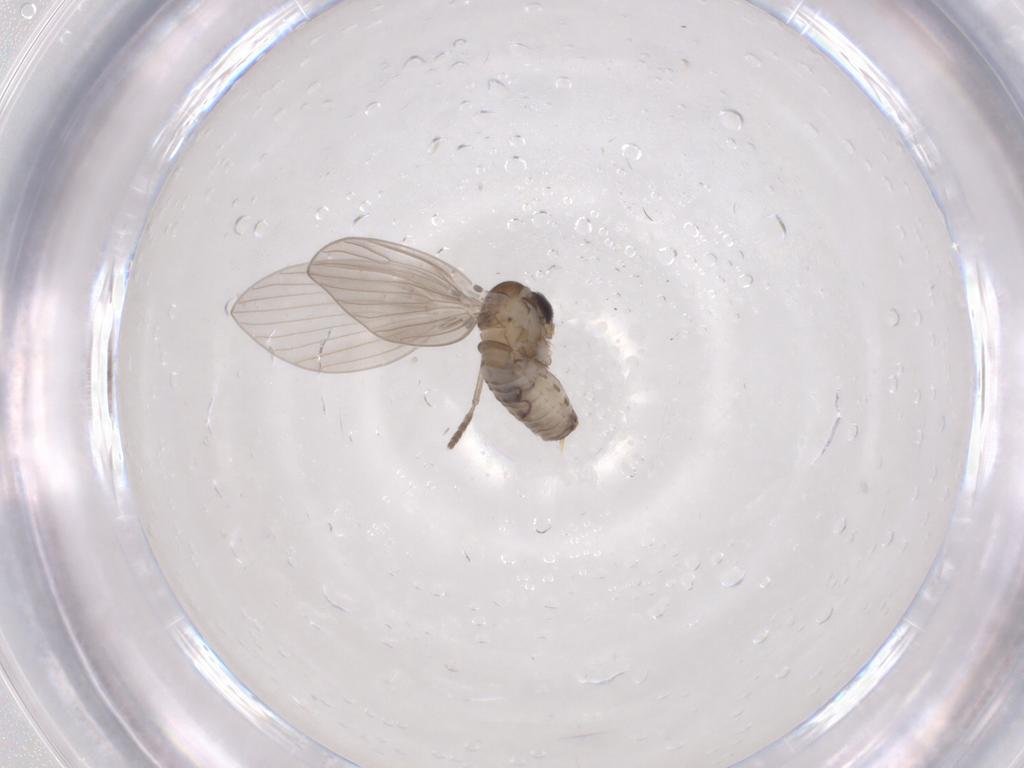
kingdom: Animalia
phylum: Arthropoda
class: Insecta
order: Diptera
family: Psychodidae
